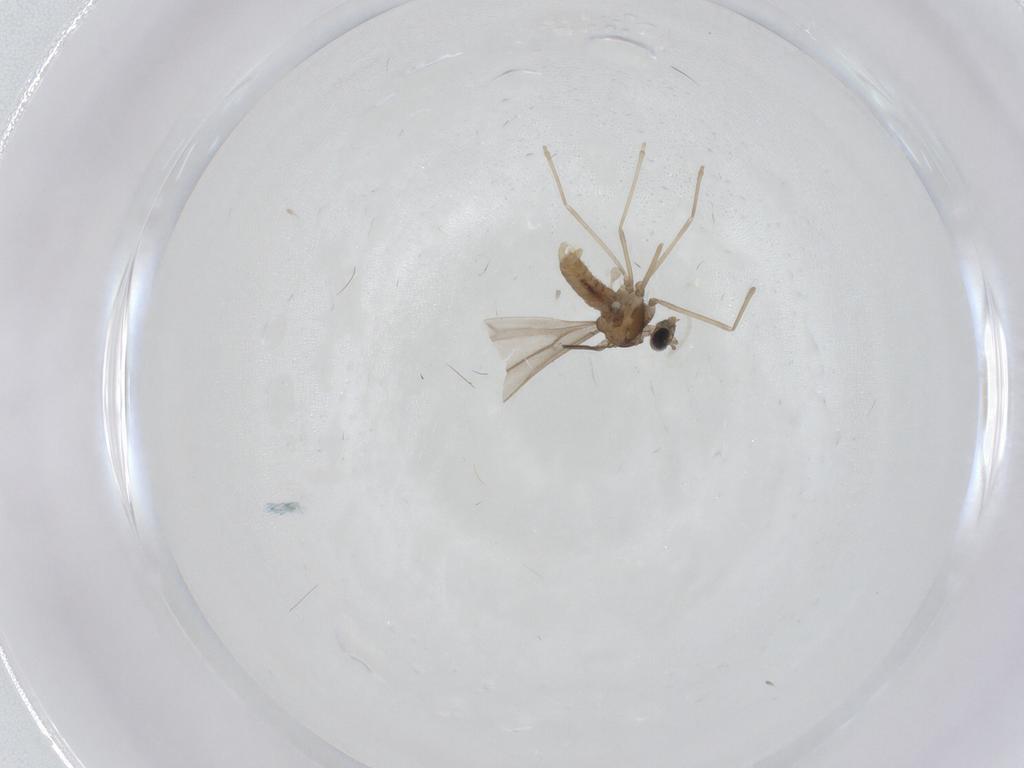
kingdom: Animalia
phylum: Arthropoda
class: Insecta
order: Diptera
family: Cecidomyiidae
